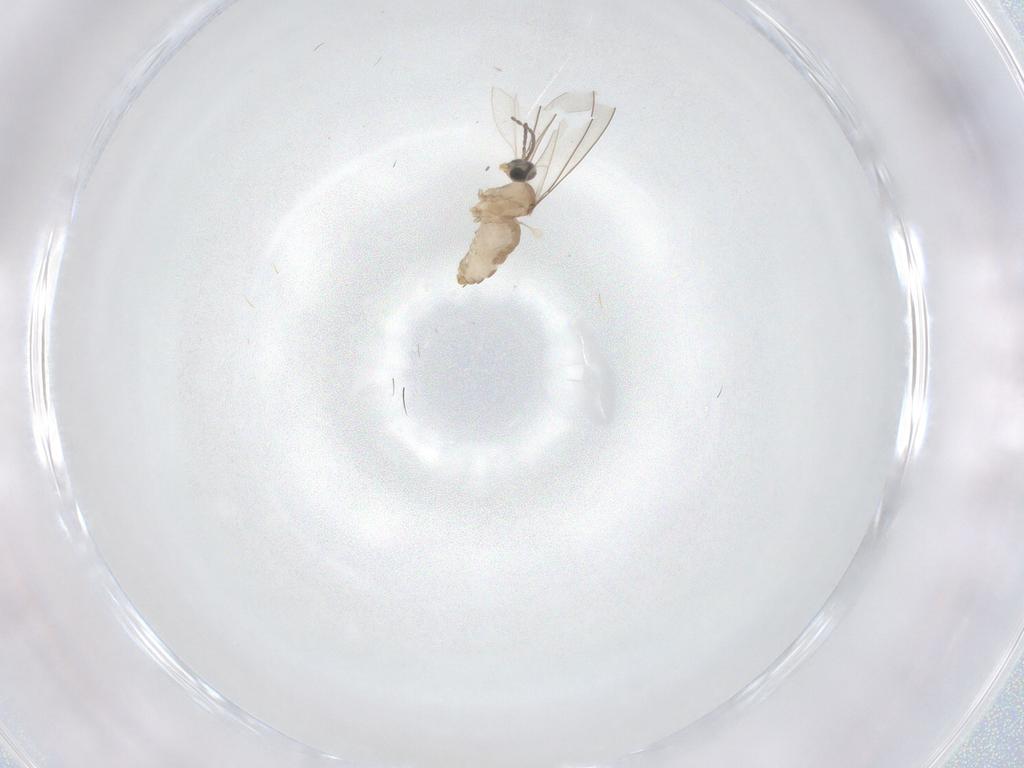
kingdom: Animalia
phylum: Arthropoda
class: Insecta
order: Diptera
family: Cecidomyiidae
